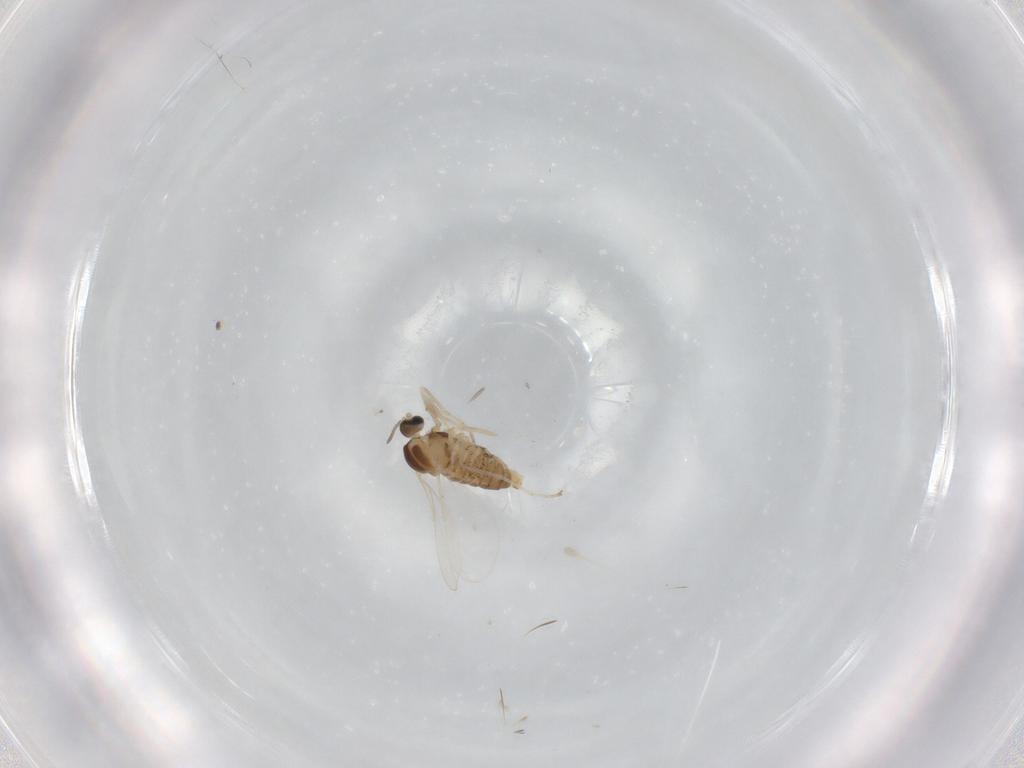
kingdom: Animalia
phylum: Arthropoda
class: Insecta
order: Diptera
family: Cecidomyiidae
